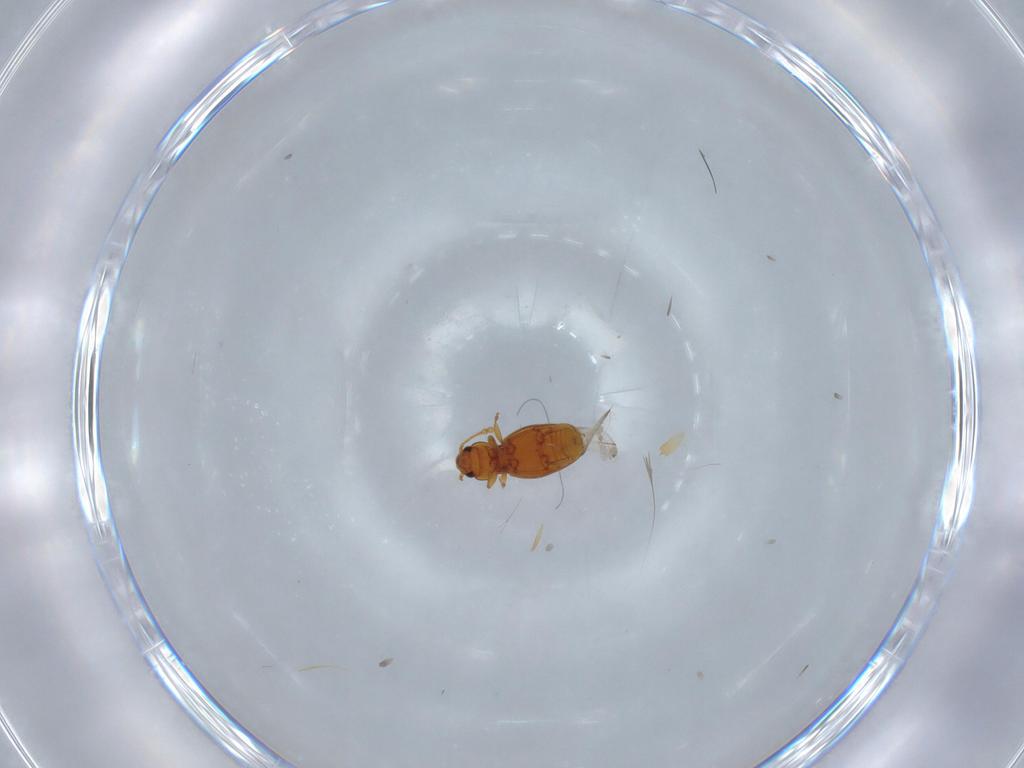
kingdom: Animalia
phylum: Arthropoda
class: Insecta
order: Coleoptera
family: Endomychidae
